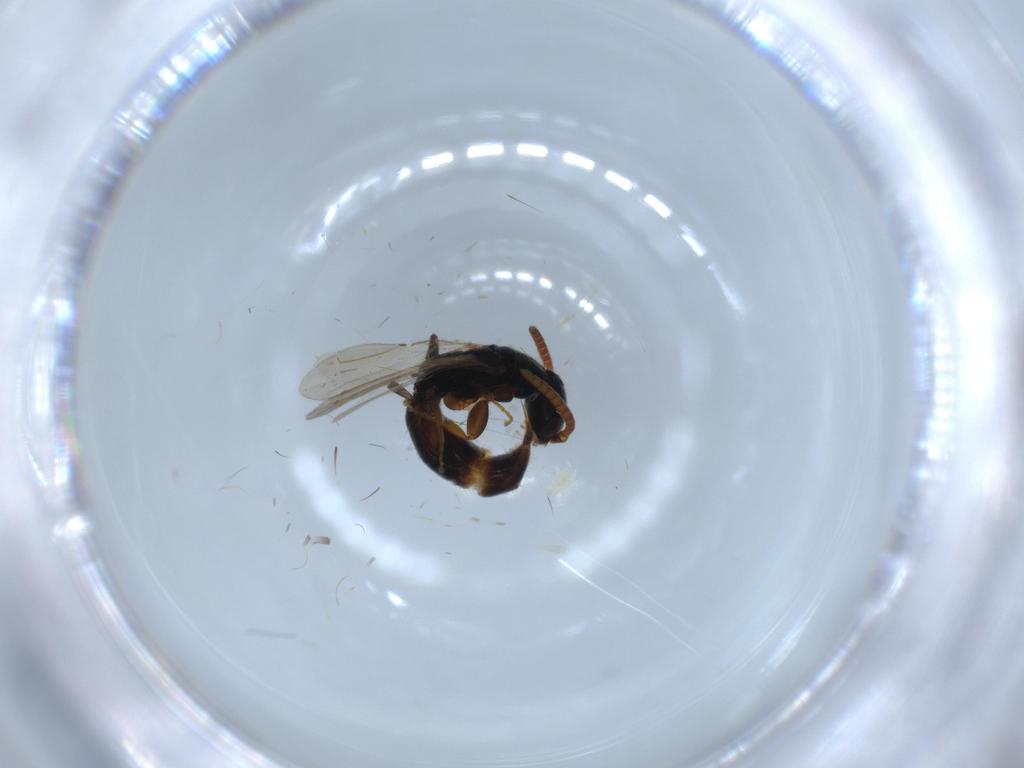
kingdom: Animalia
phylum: Arthropoda
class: Insecta
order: Hymenoptera
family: Bethylidae
